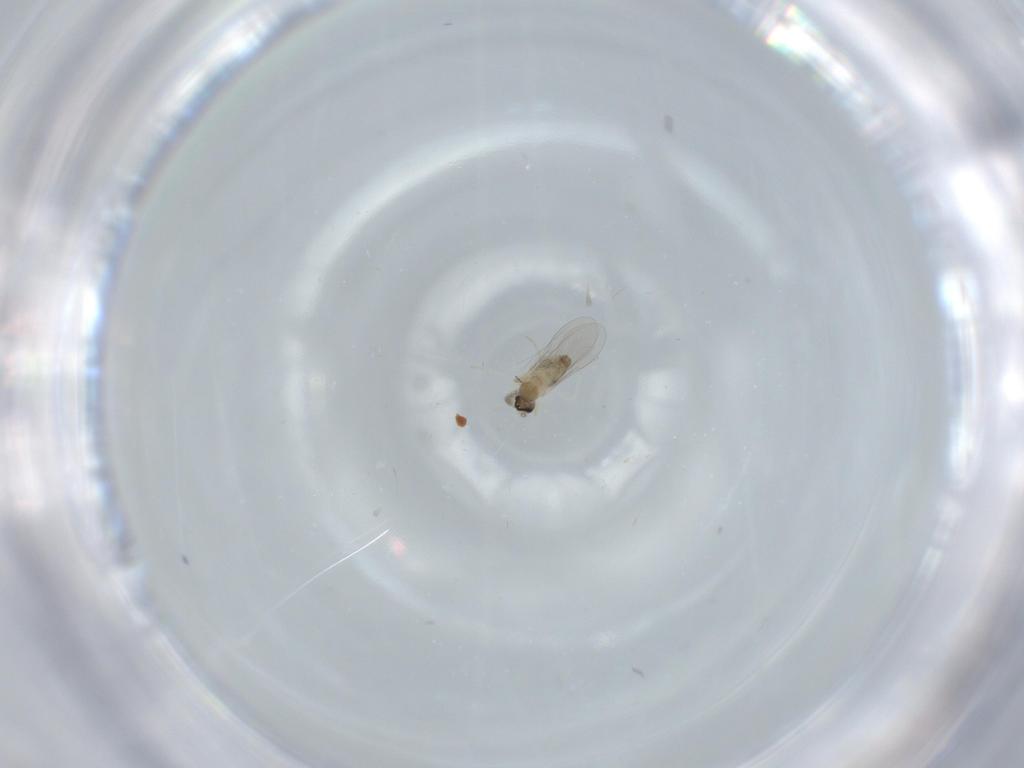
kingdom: Animalia
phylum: Arthropoda
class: Insecta
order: Diptera
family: Cecidomyiidae
